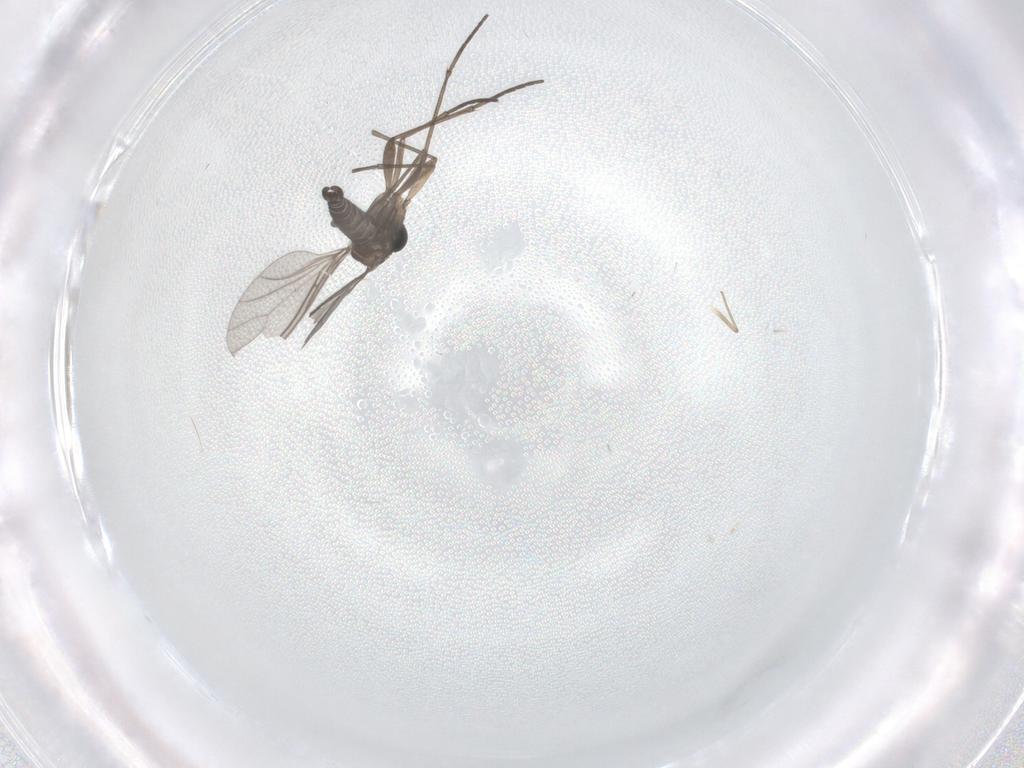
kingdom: Animalia
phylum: Arthropoda
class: Insecta
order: Diptera
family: Sciaridae
